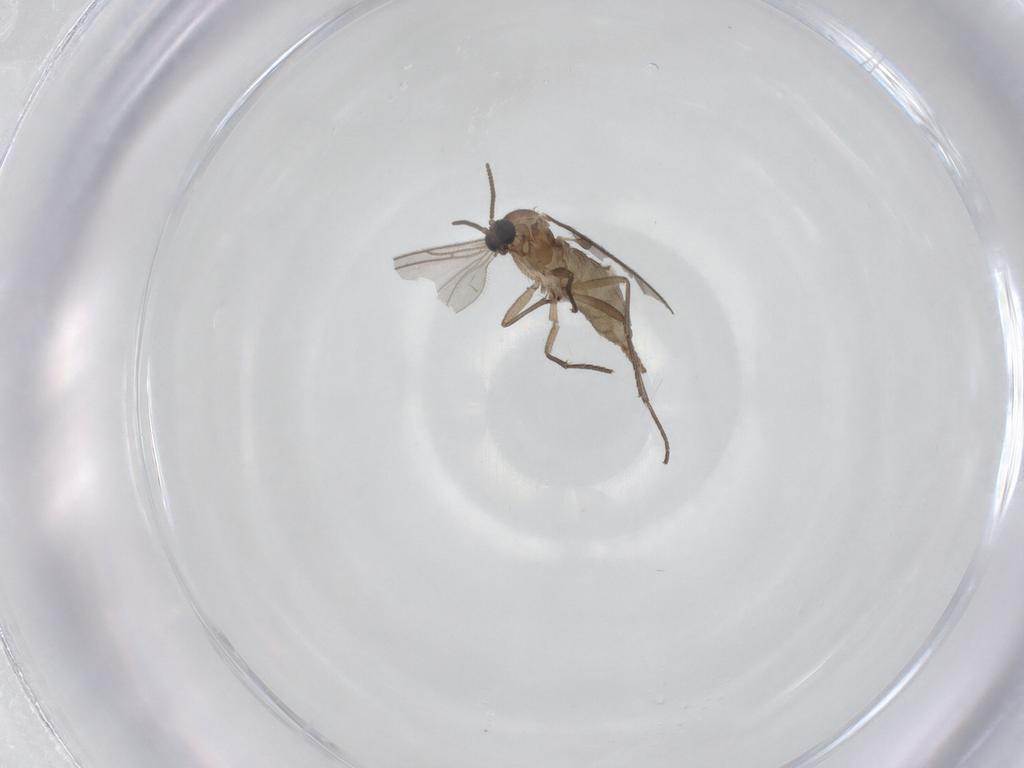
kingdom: Animalia
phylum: Arthropoda
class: Insecta
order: Diptera
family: Sciaridae
